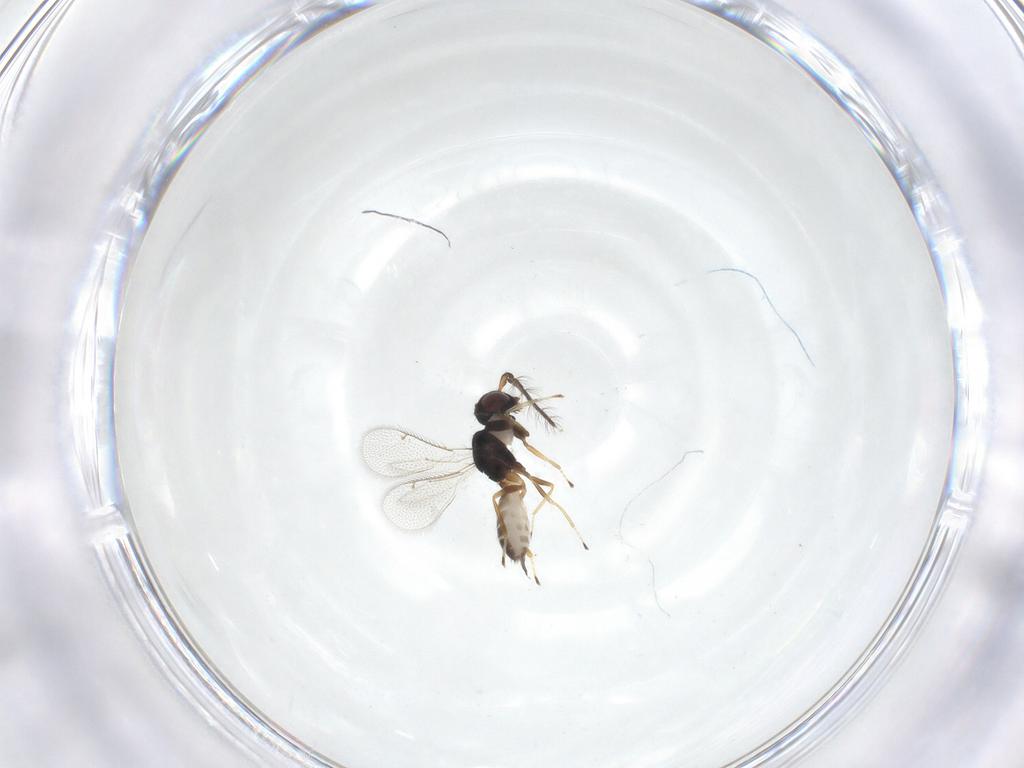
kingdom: Animalia
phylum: Arthropoda
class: Insecta
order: Hymenoptera
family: Eulophidae
